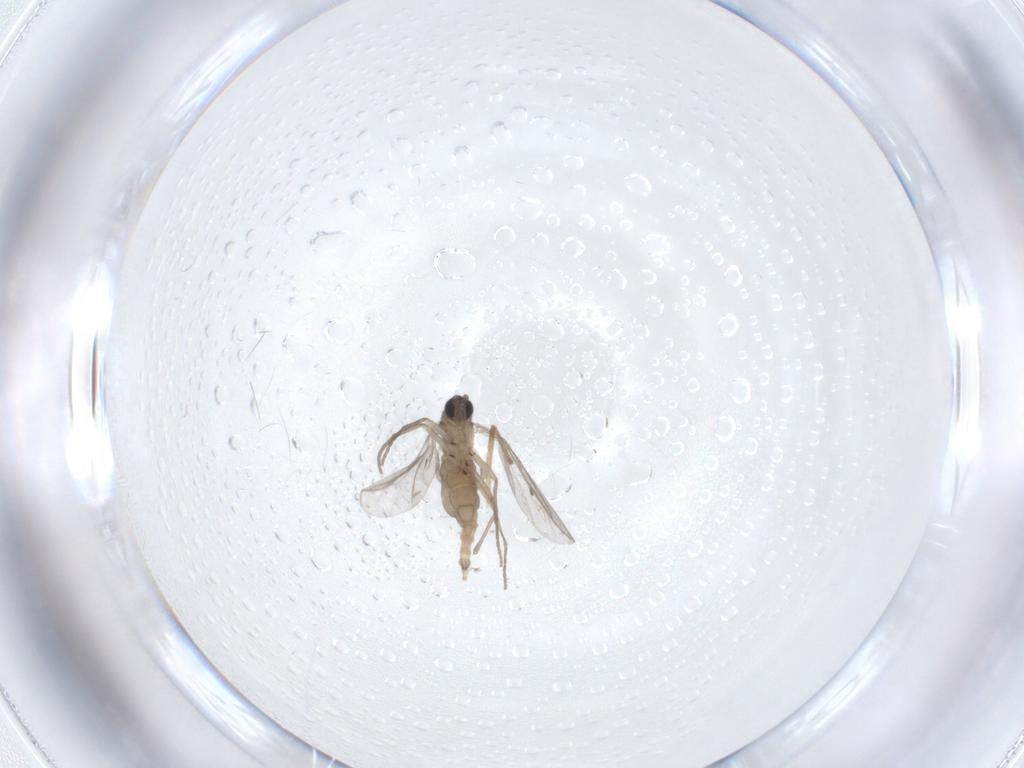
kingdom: Animalia
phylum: Arthropoda
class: Insecta
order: Diptera
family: Sciaridae
